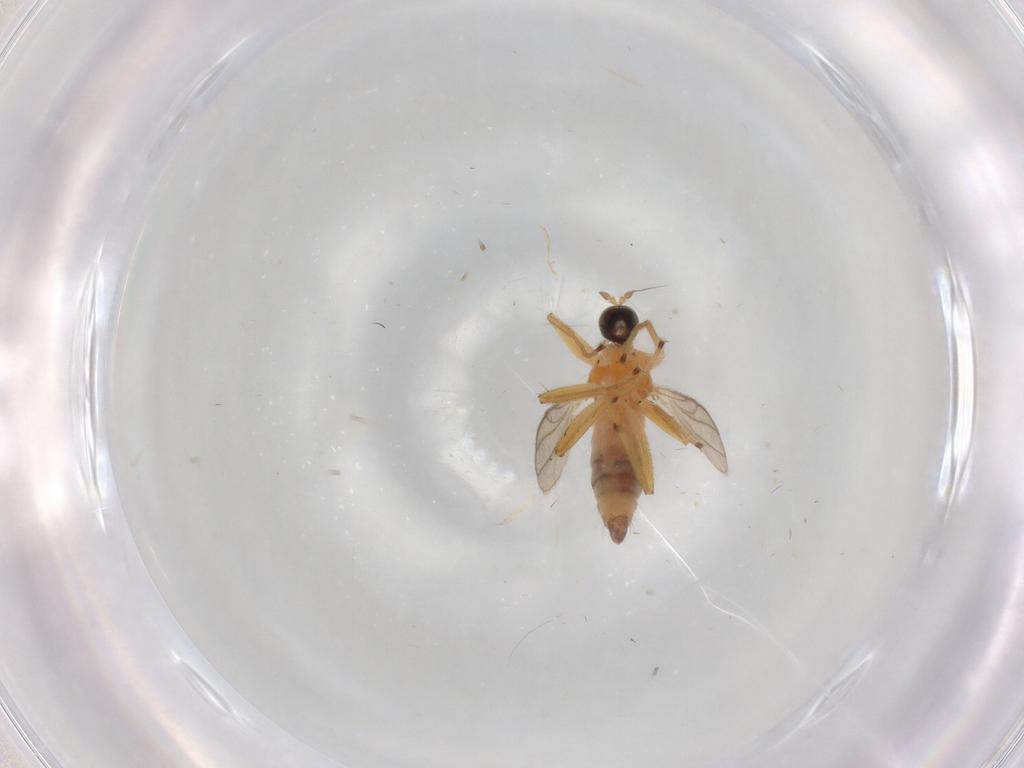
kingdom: Animalia
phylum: Arthropoda
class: Insecta
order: Diptera
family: Hybotidae
